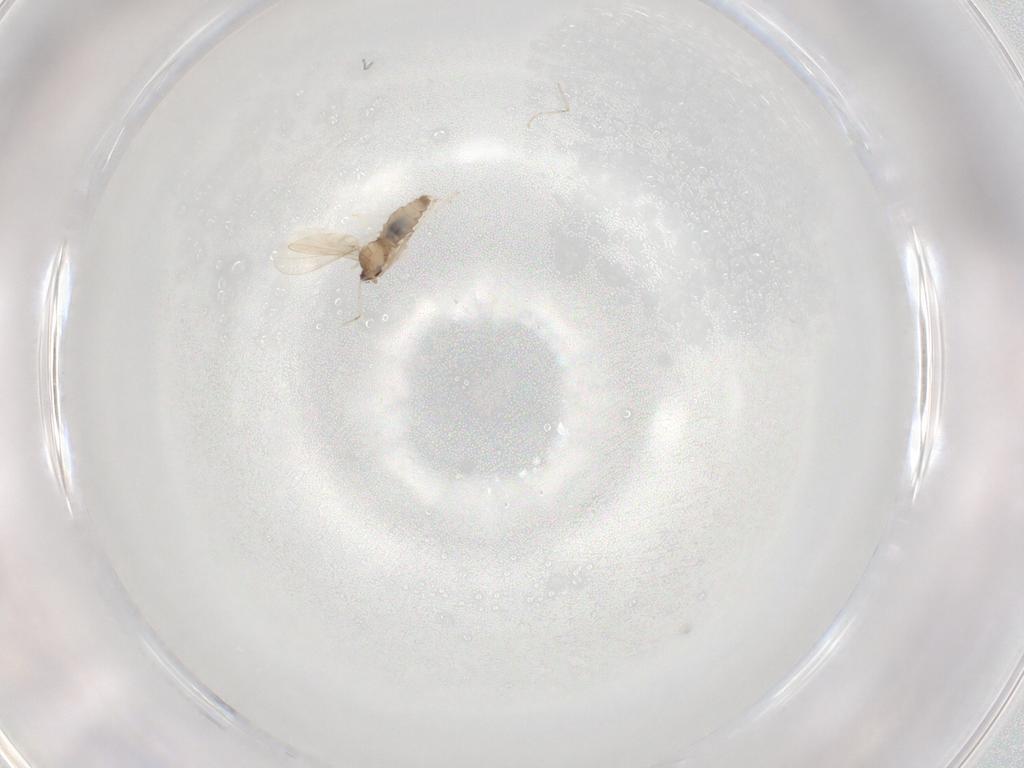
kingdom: Animalia
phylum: Arthropoda
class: Insecta
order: Diptera
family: Cecidomyiidae
